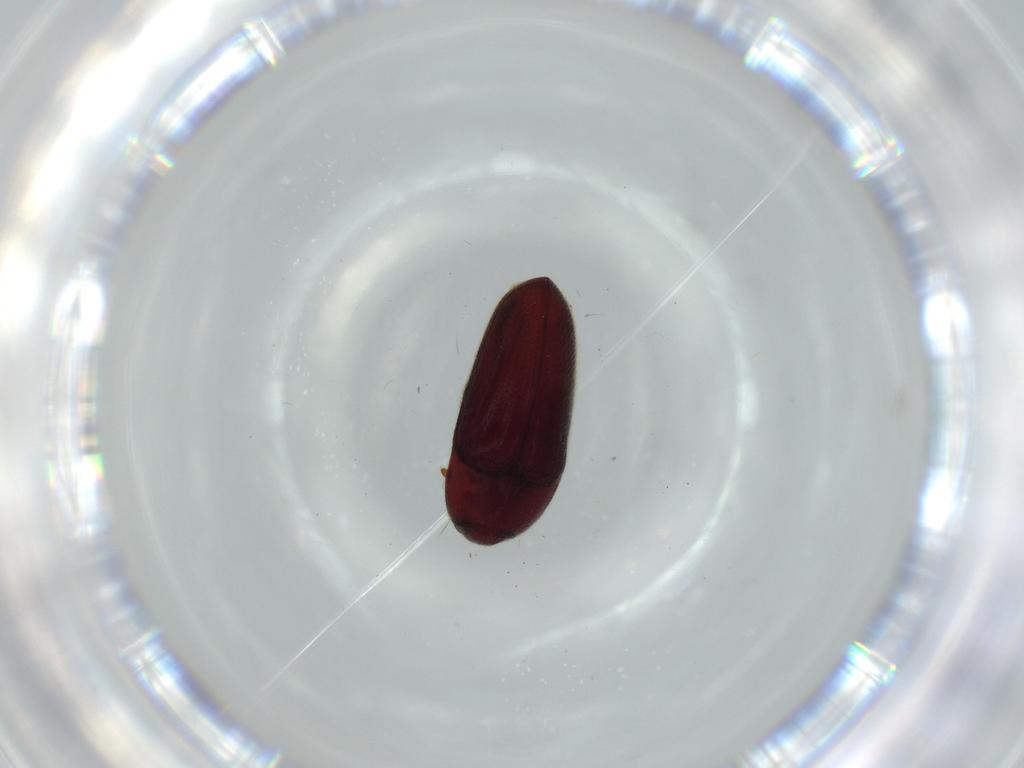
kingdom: Animalia
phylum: Arthropoda
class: Insecta
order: Coleoptera
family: Throscidae
